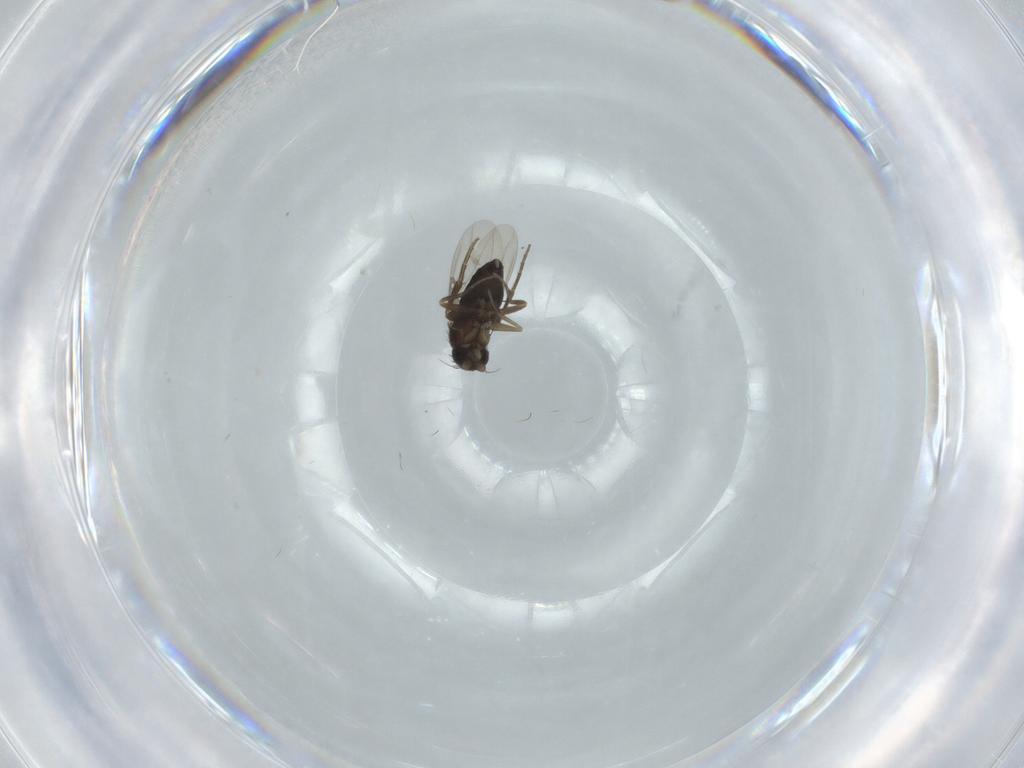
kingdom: Animalia
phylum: Arthropoda
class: Insecta
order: Diptera
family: Phoridae
